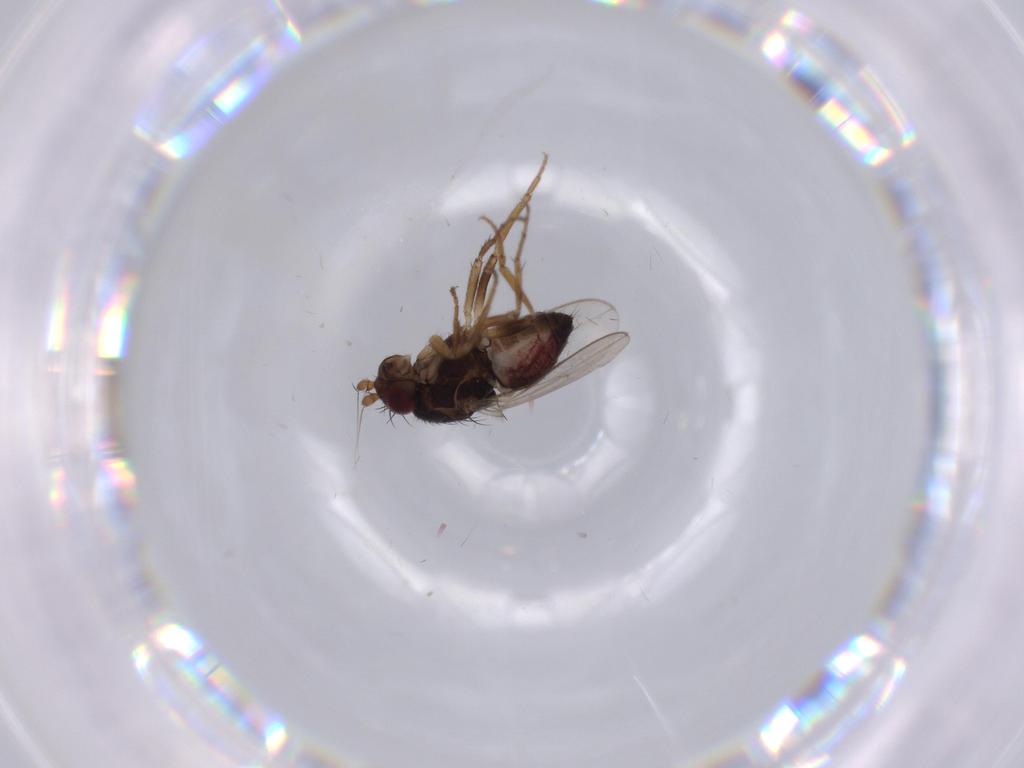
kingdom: Animalia
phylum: Arthropoda
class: Insecta
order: Diptera
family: Sphaeroceridae
